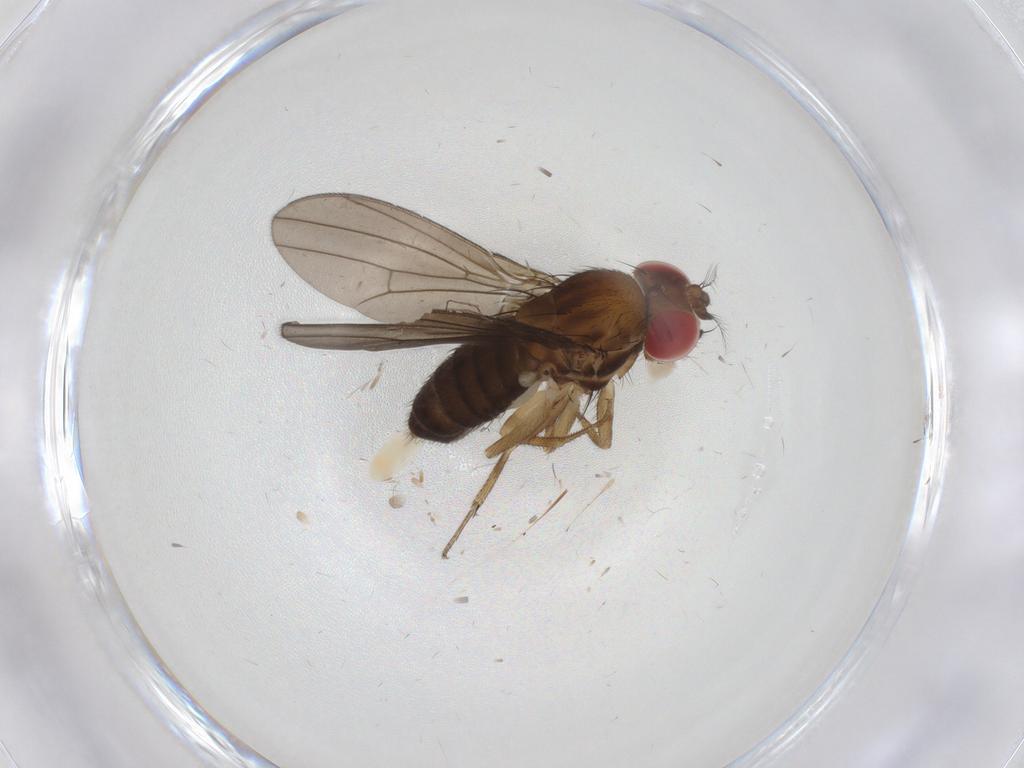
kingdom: Animalia
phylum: Arthropoda
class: Insecta
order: Diptera
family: Drosophilidae
